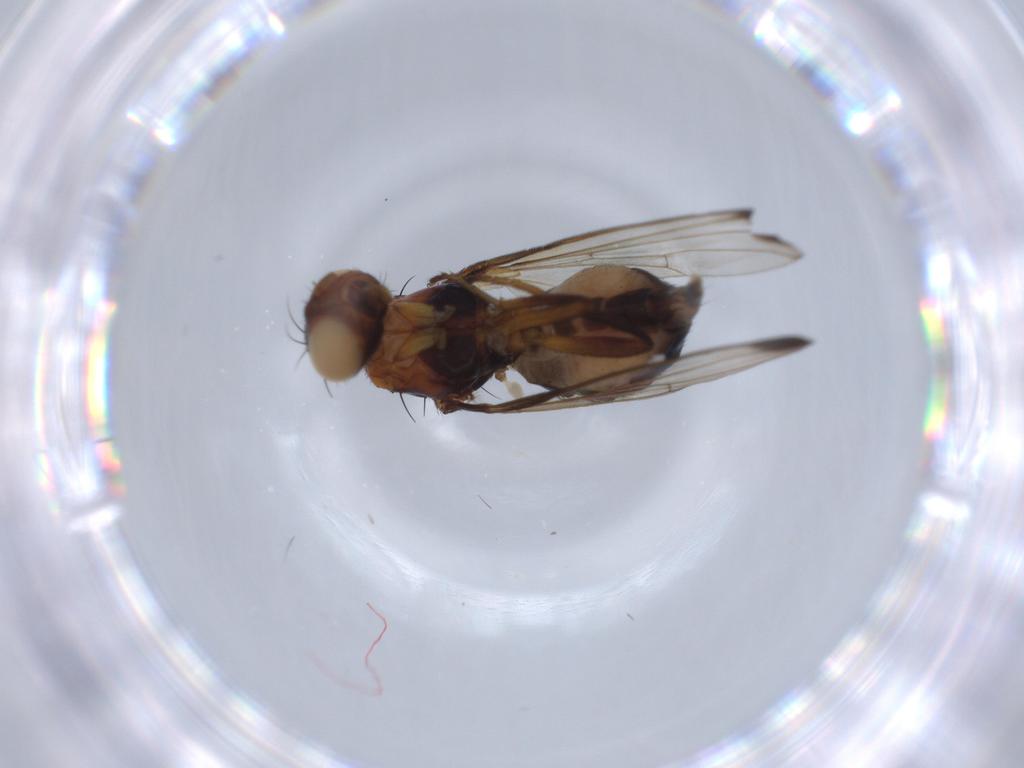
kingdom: Animalia
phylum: Arthropoda
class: Insecta
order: Diptera
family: Piophilidae
